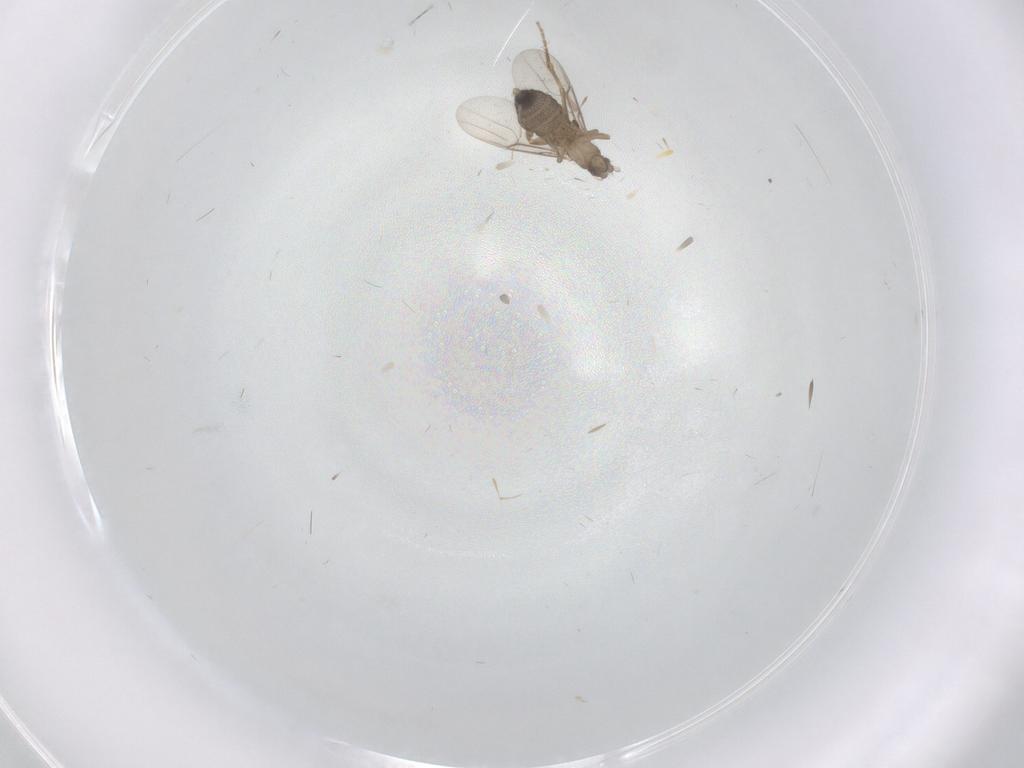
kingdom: Animalia
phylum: Arthropoda
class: Insecta
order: Diptera
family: Phoridae
